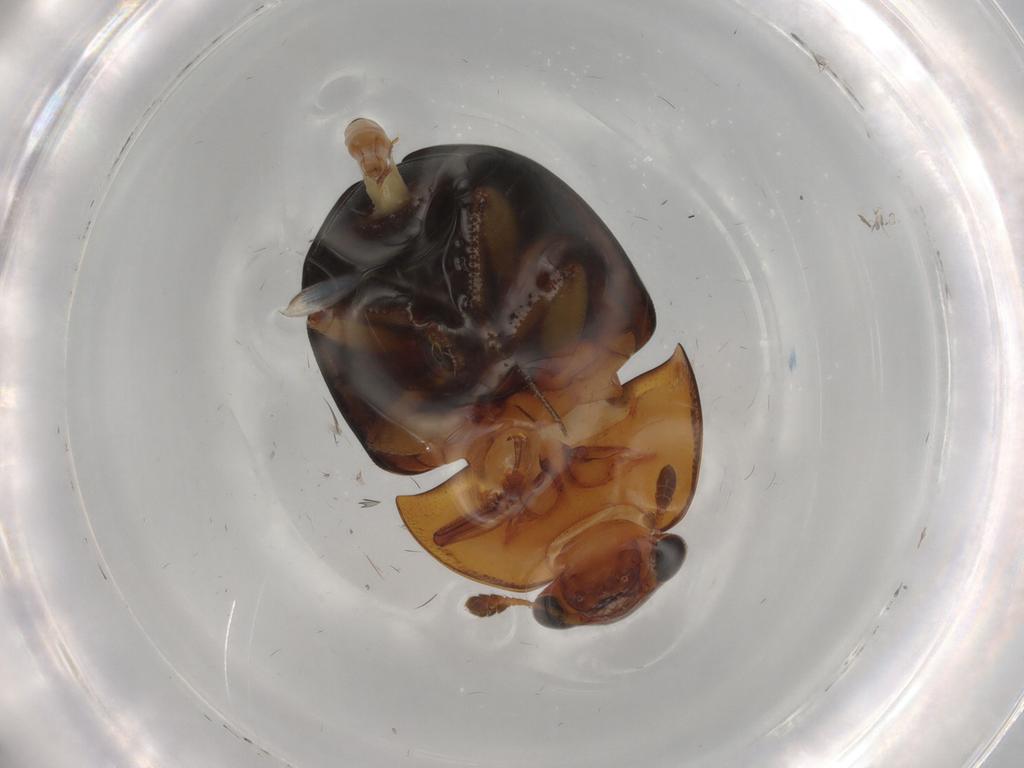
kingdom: Animalia
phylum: Arthropoda
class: Insecta
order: Coleoptera
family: Nitidulidae
